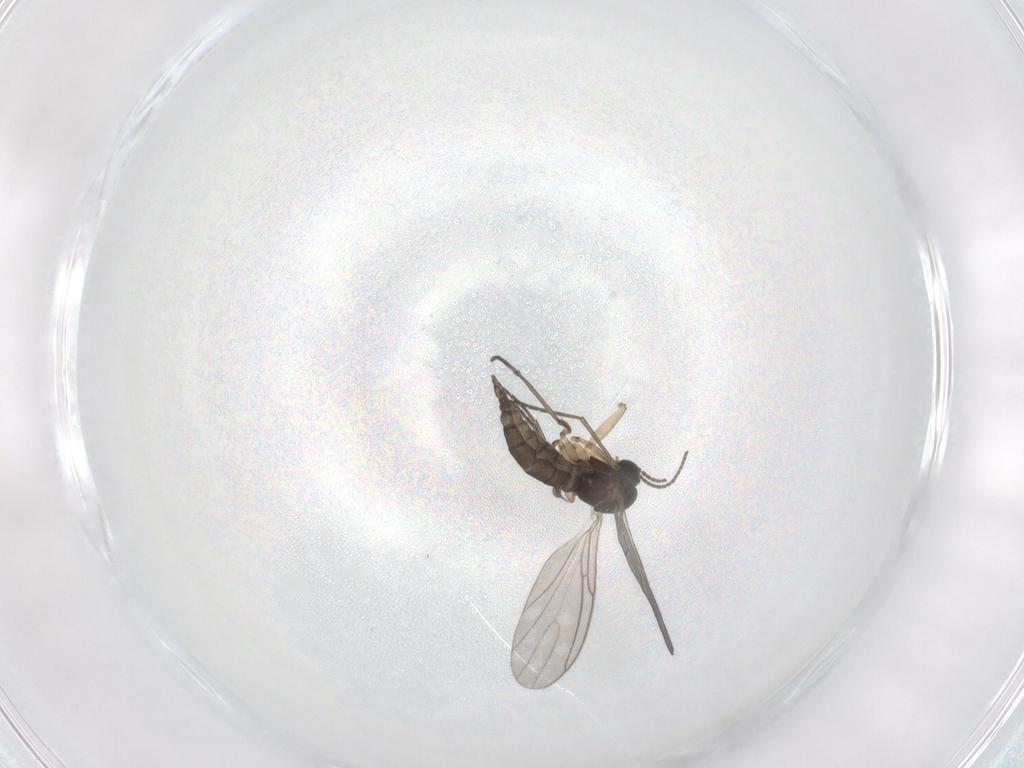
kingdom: Animalia
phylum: Arthropoda
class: Insecta
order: Diptera
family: Sciaridae
